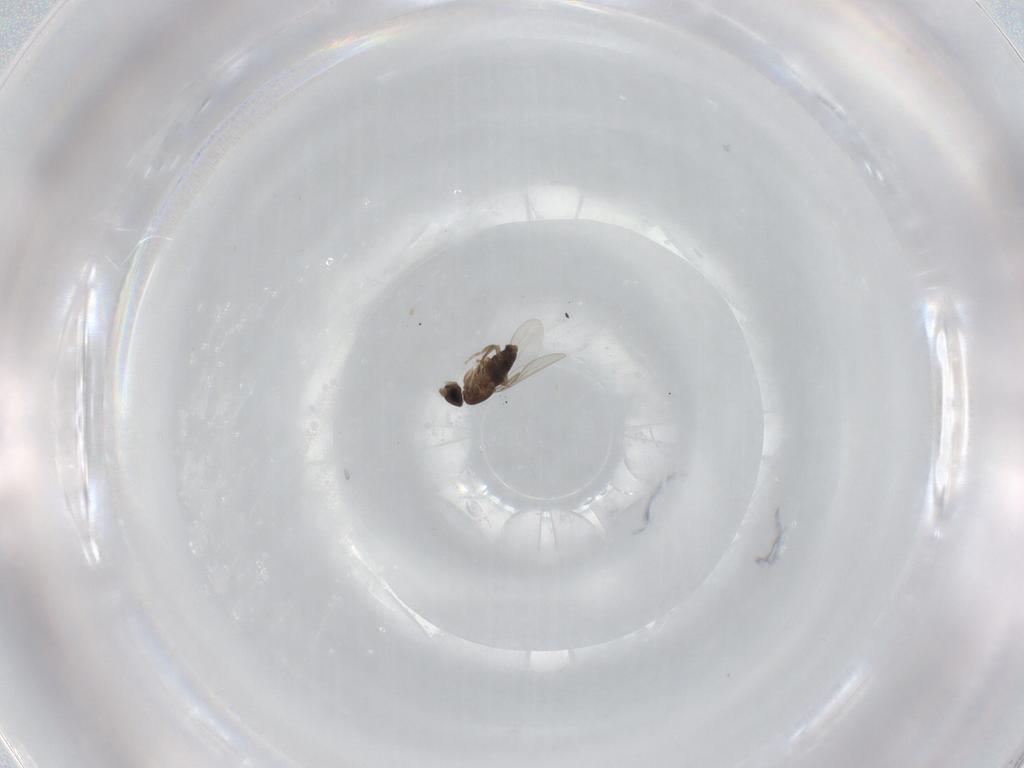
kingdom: Animalia
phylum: Arthropoda
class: Insecta
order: Diptera
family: Phoridae
